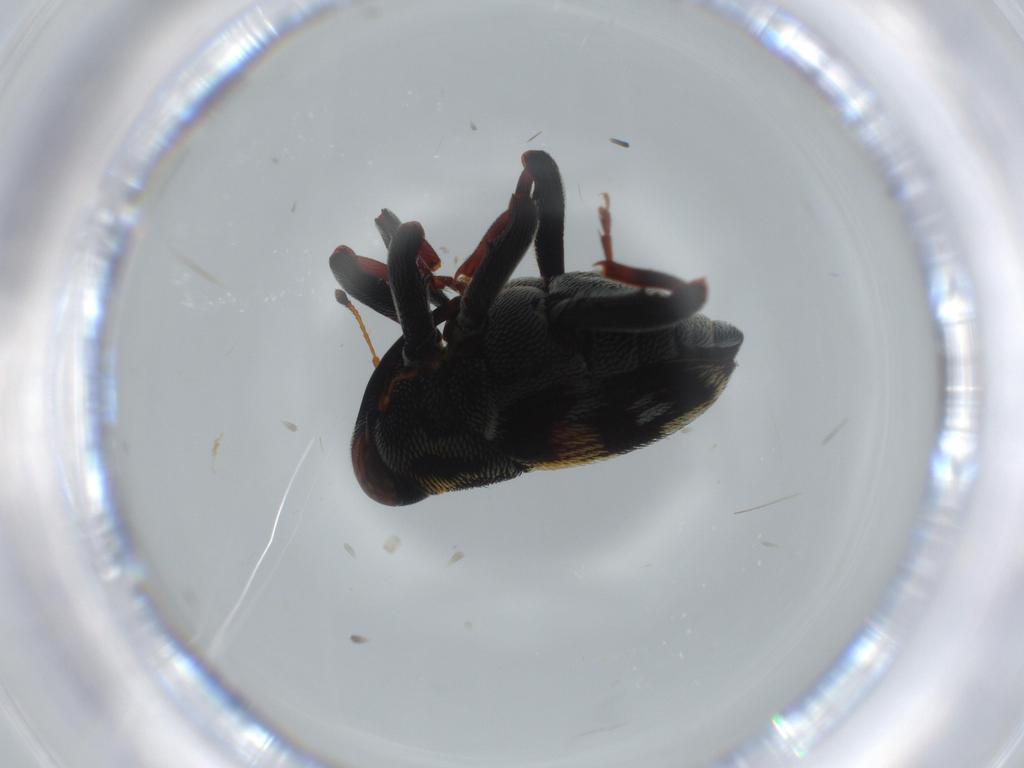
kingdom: Animalia
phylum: Arthropoda
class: Insecta
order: Coleoptera
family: Curculionidae
